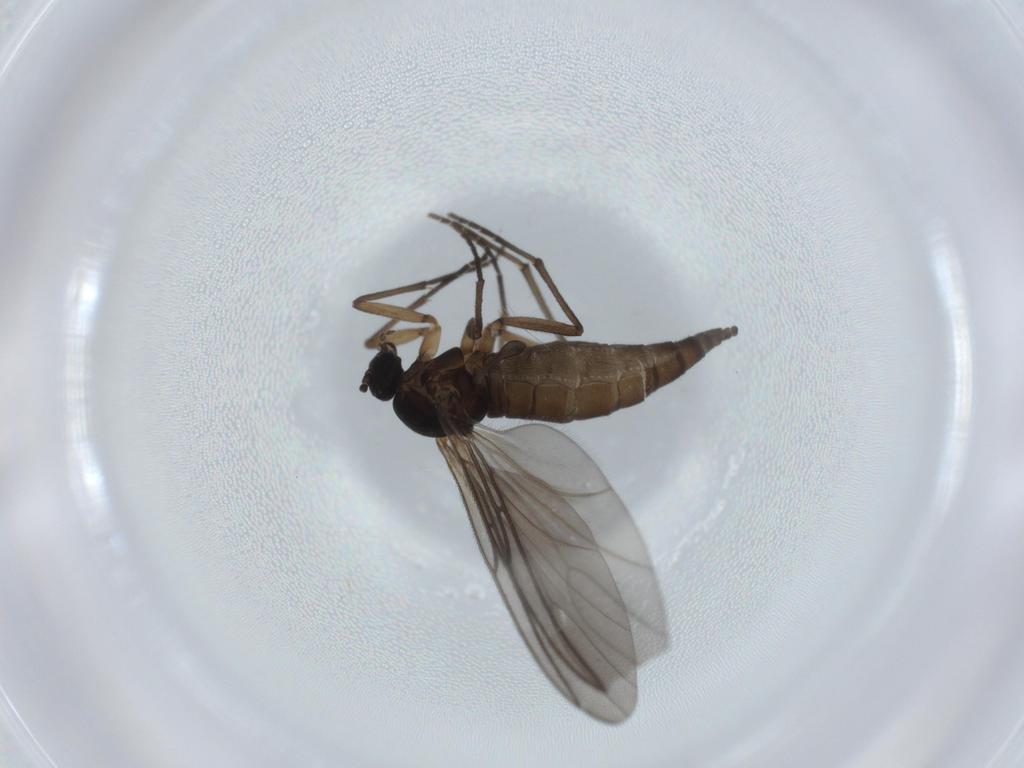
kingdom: Animalia
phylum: Arthropoda
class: Insecta
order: Diptera
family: Sciaridae
